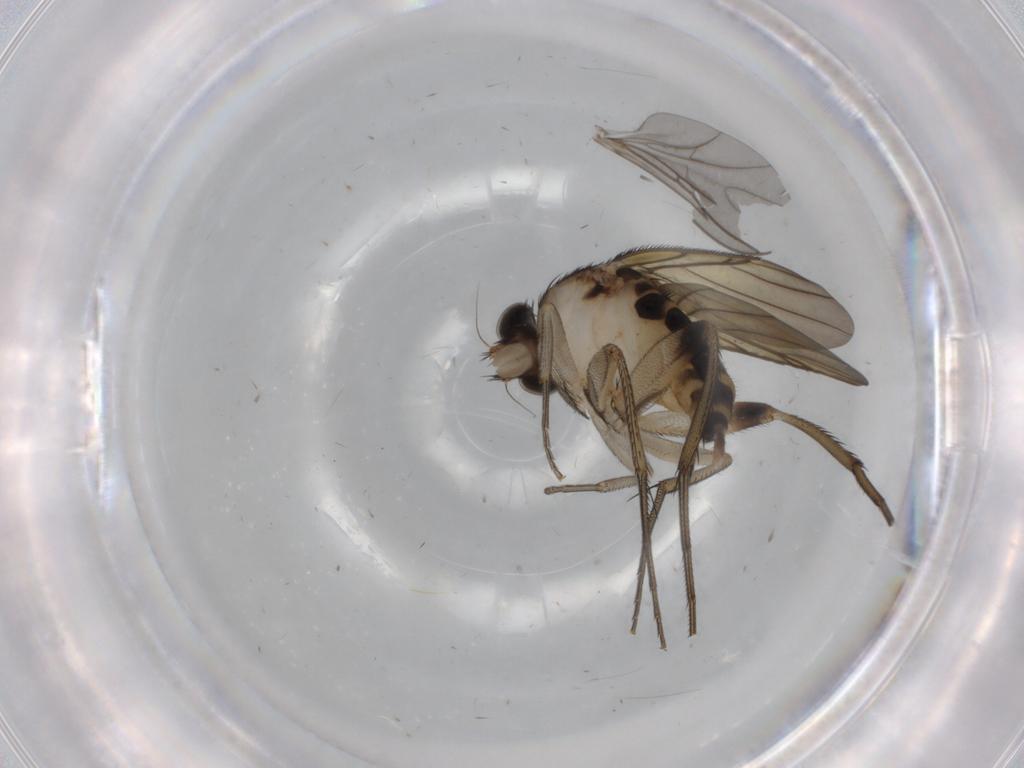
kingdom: Animalia
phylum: Arthropoda
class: Insecta
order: Diptera
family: Phoridae
